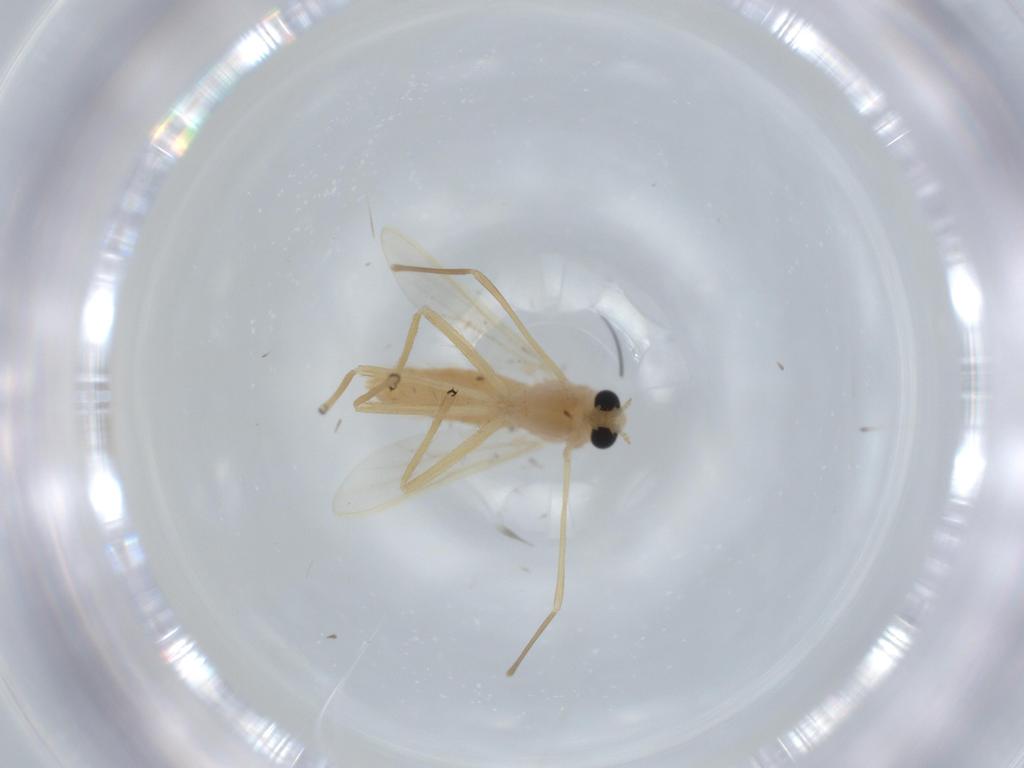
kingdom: Animalia
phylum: Arthropoda
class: Insecta
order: Diptera
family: Chironomidae
